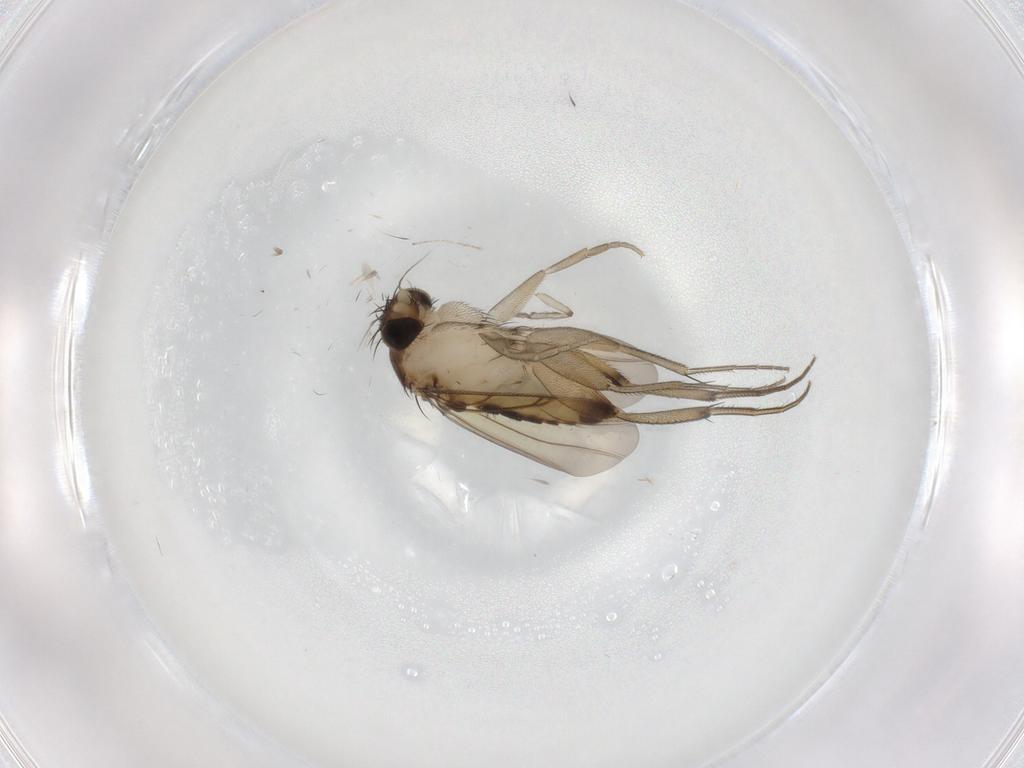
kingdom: Animalia
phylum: Arthropoda
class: Insecta
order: Diptera
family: Phoridae
